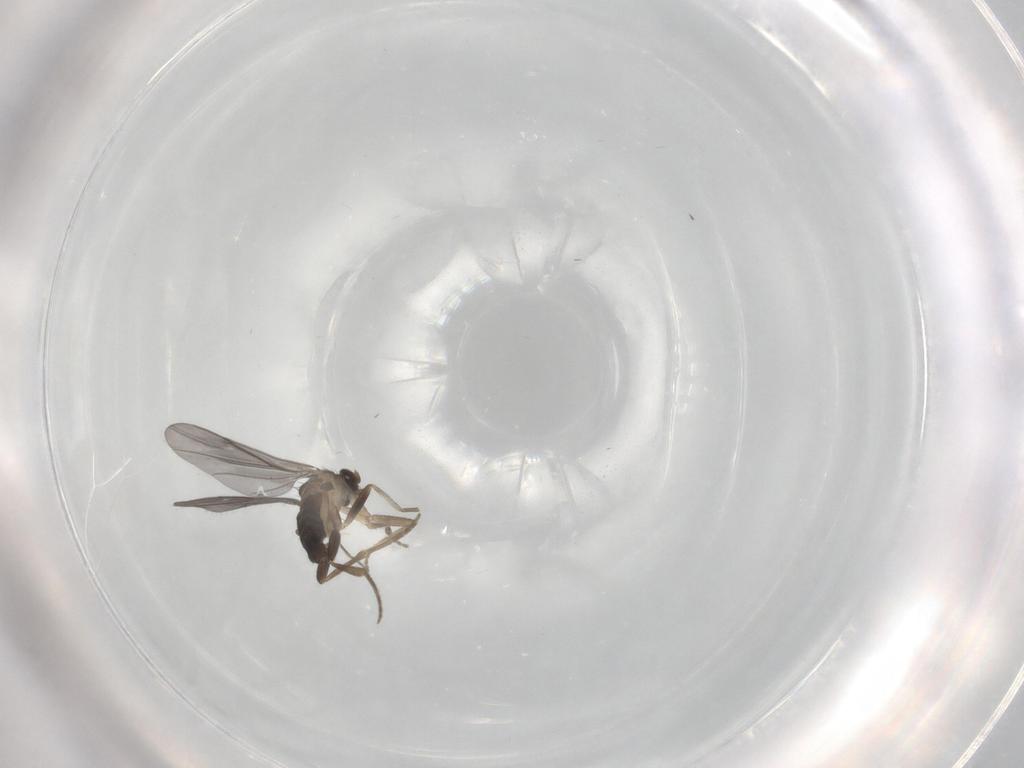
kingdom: Animalia
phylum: Arthropoda
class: Insecta
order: Diptera
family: Phoridae
